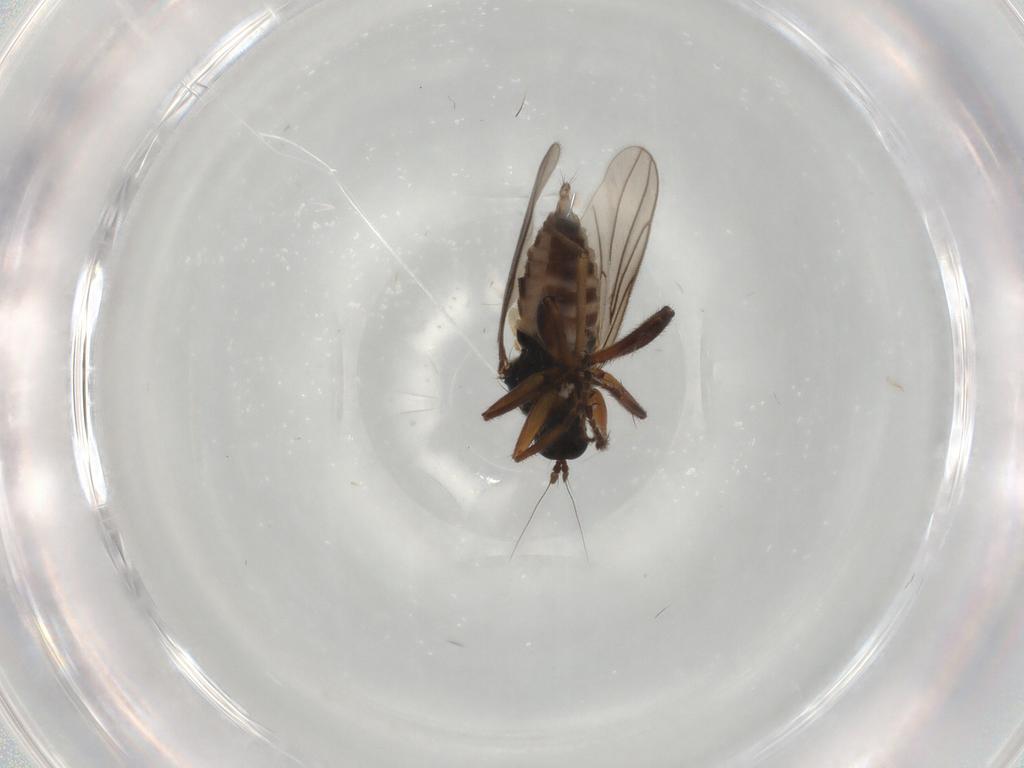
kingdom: Animalia
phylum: Arthropoda
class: Insecta
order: Diptera
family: Hybotidae
